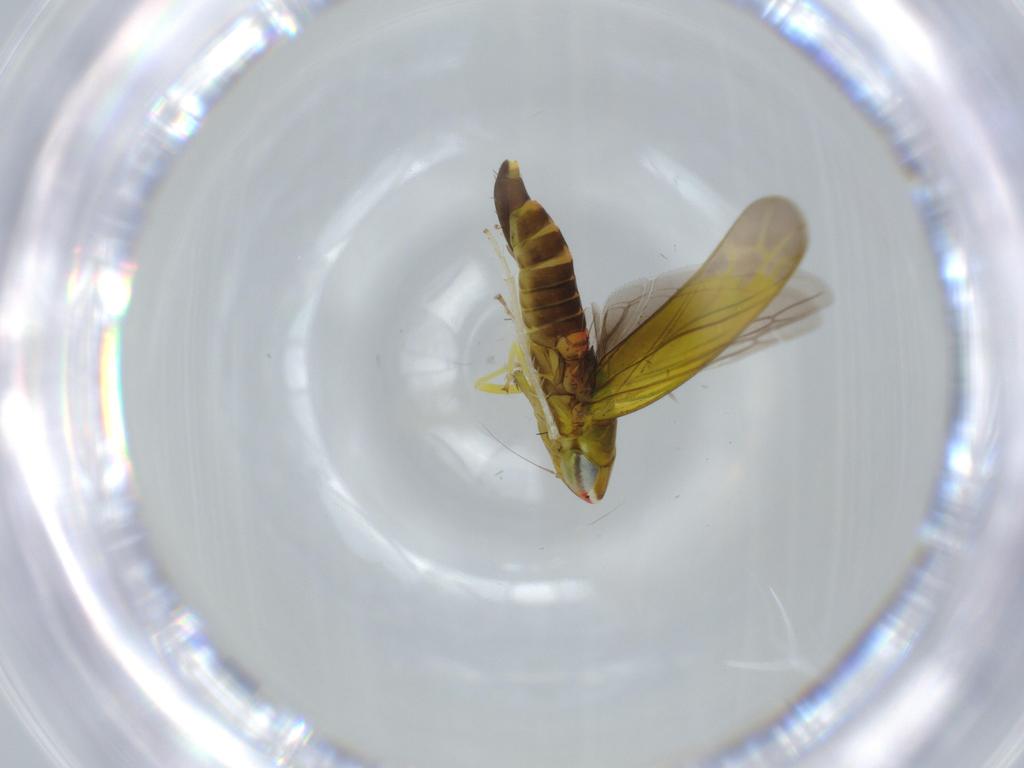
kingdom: Animalia
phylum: Arthropoda
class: Insecta
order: Hemiptera
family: Cicadellidae
